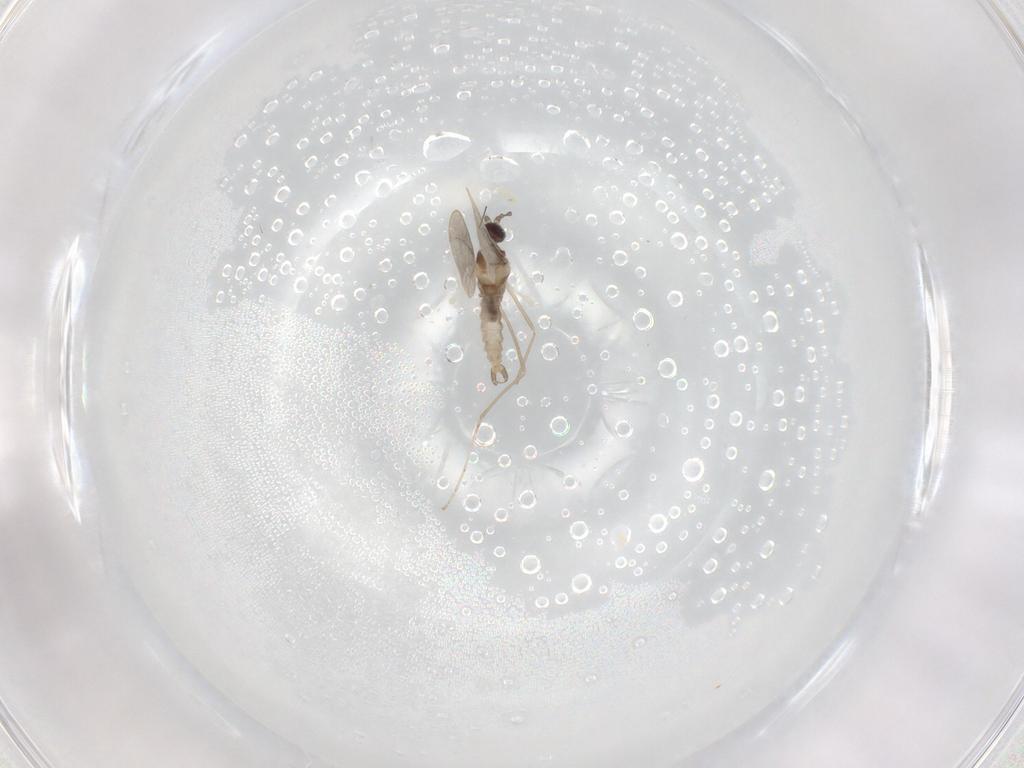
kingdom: Animalia
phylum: Arthropoda
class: Insecta
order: Diptera
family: Cecidomyiidae
